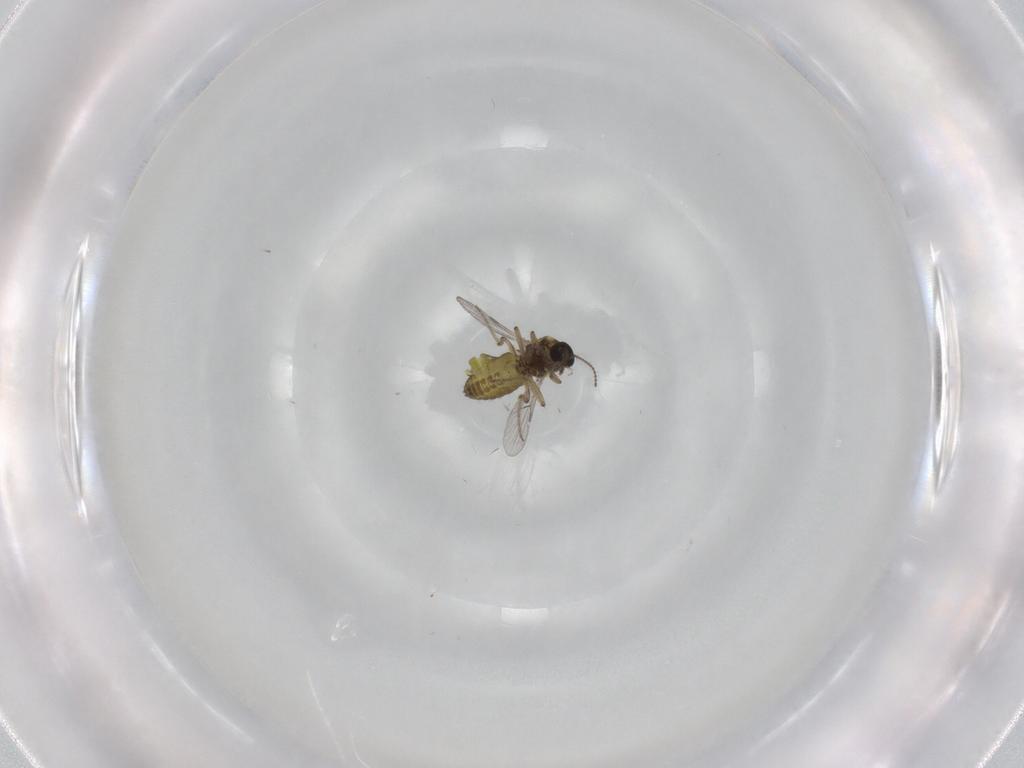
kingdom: Animalia
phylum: Arthropoda
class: Insecta
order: Diptera
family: Ceratopogonidae
